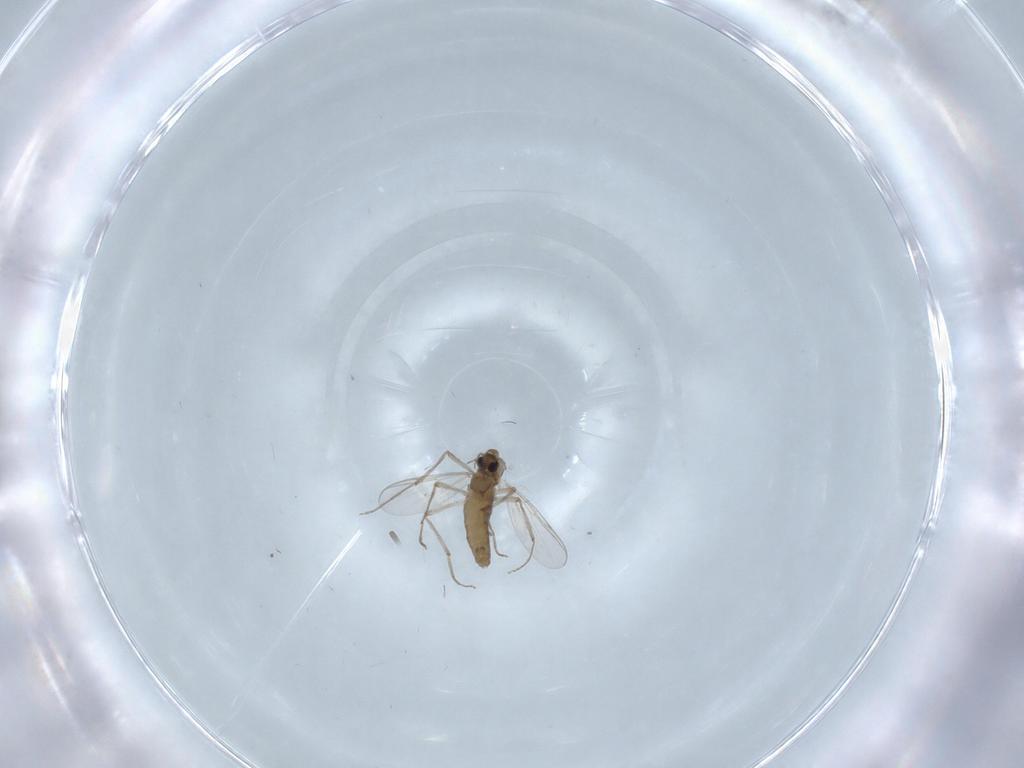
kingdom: Animalia
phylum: Arthropoda
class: Insecta
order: Diptera
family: Chironomidae
